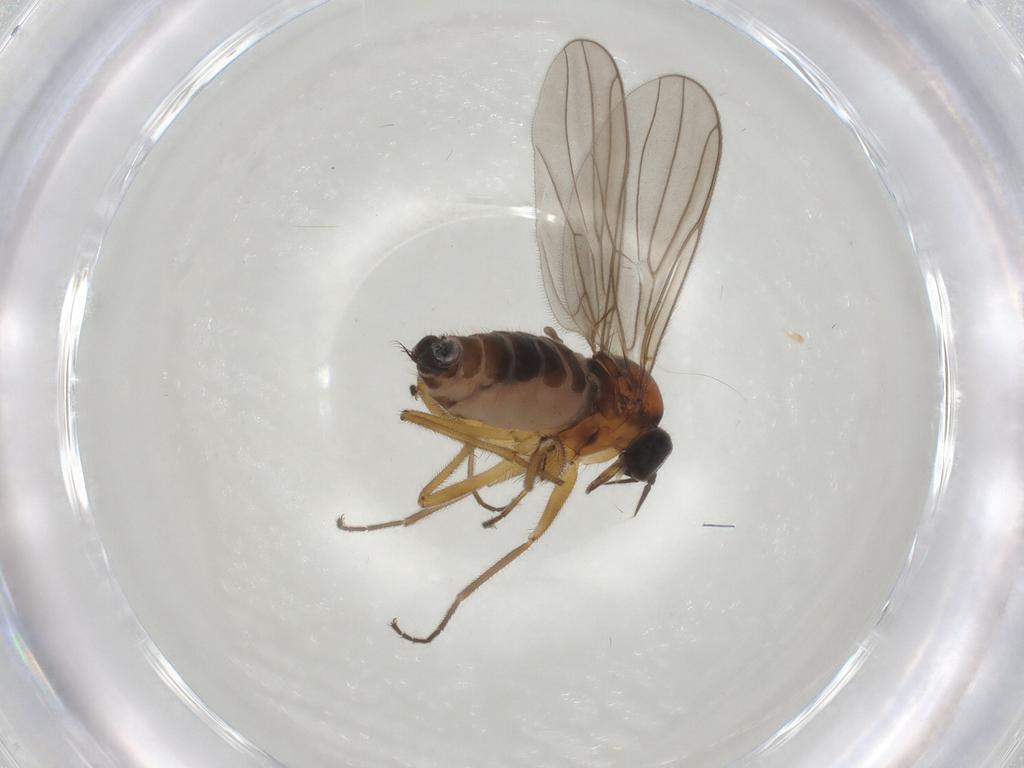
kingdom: Animalia
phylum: Arthropoda
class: Insecta
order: Diptera
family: Hybotidae
